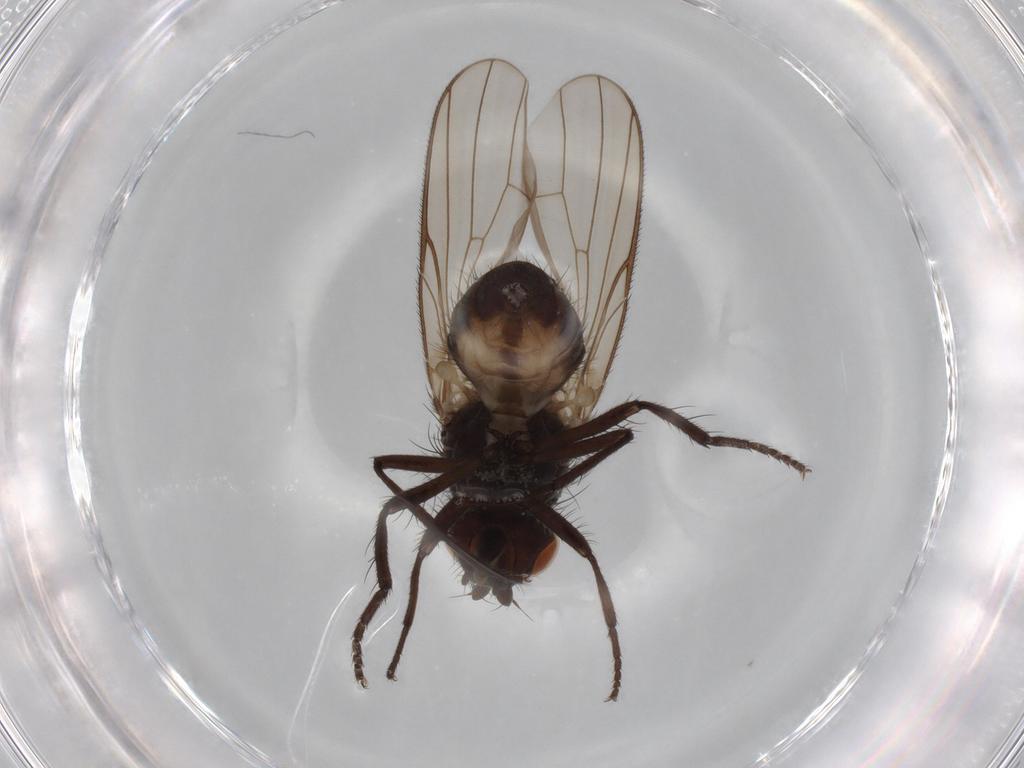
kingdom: Animalia
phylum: Arthropoda
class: Insecta
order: Diptera
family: Anthomyiidae
